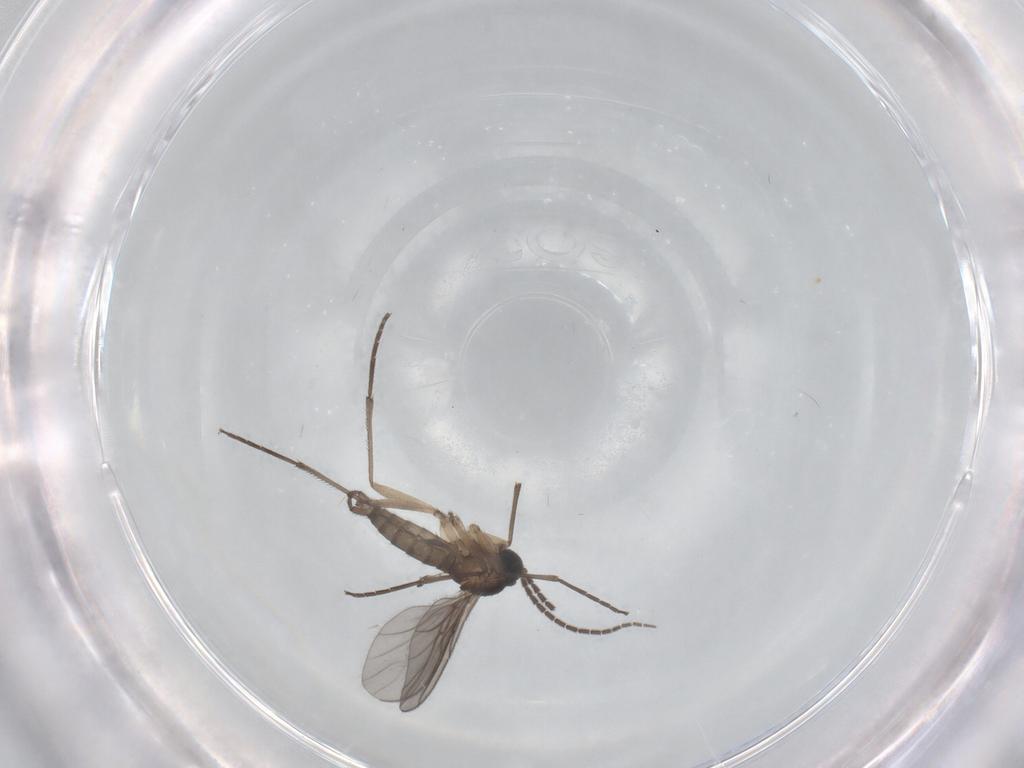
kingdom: Animalia
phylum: Arthropoda
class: Insecta
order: Diptera
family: Sciaridae
